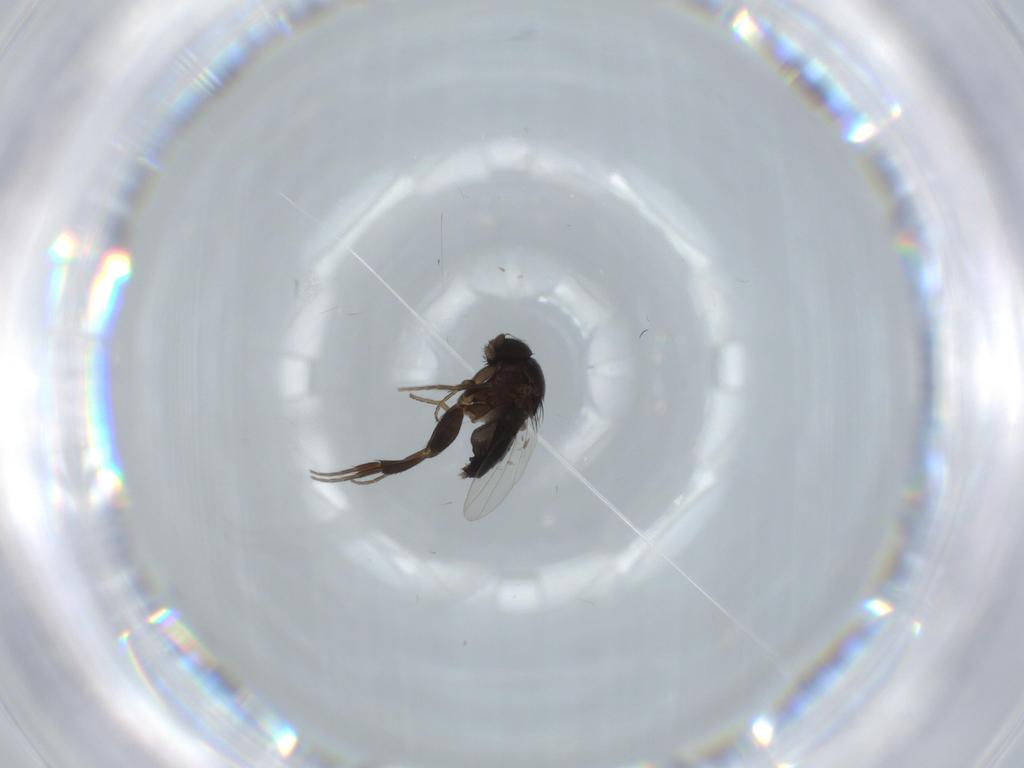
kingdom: Animalia
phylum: Arthropoda
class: Insecta
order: Diptera
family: Phoridae
